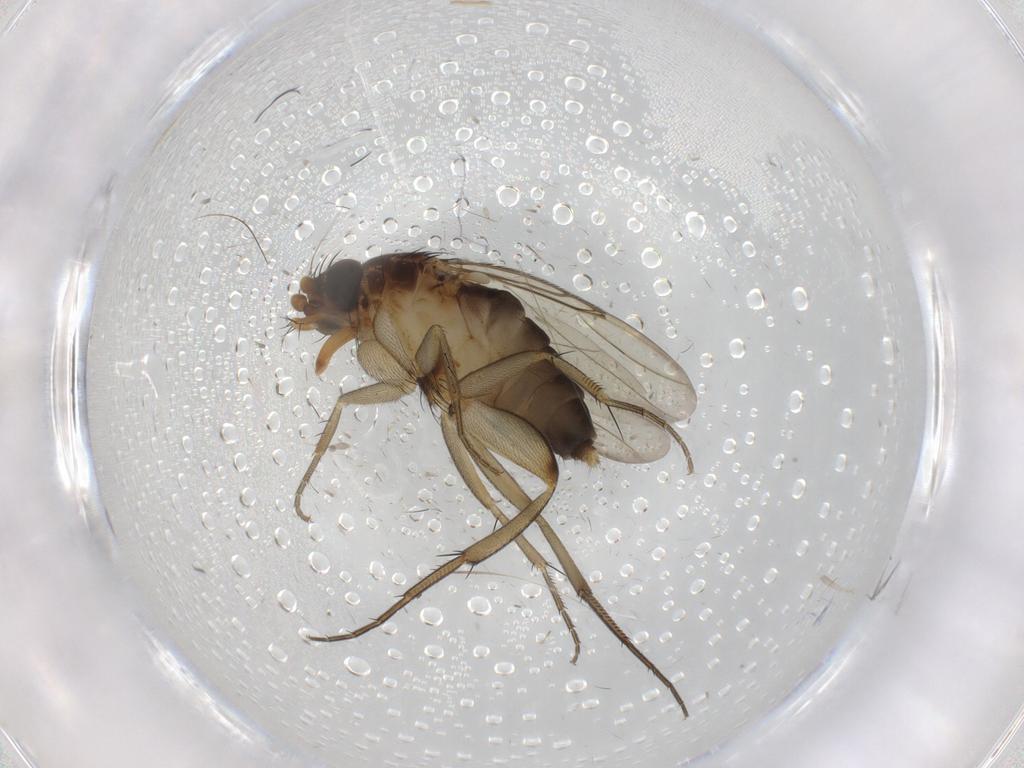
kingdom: Animalia
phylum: Arthropoda
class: Insecta
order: Diptera
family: Phoridae
